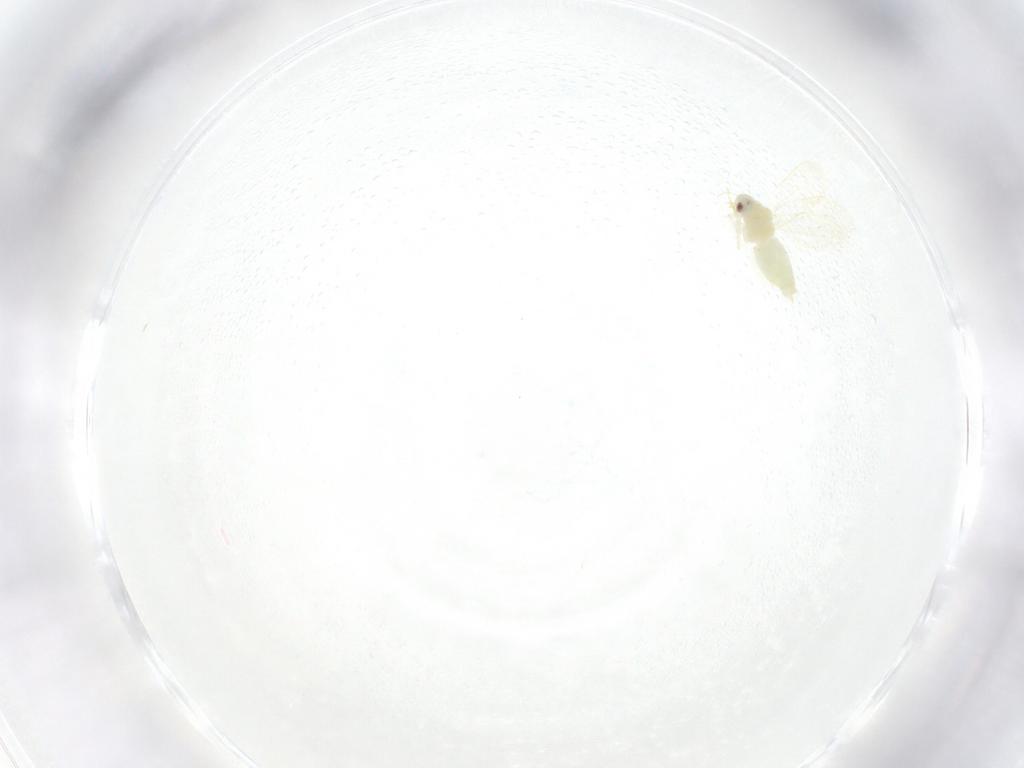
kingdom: Animalia
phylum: Arthropoda
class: Insecta
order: Hemiptera
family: Aleyrodidae
